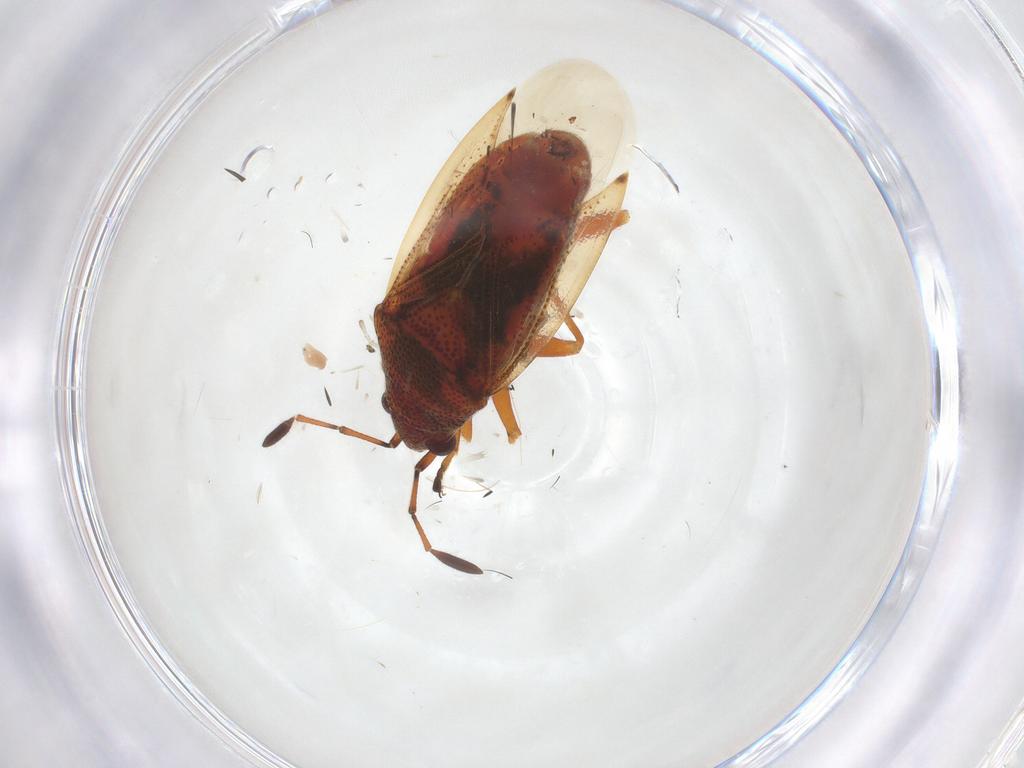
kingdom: Animalia
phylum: Arthropoda
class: Insecta
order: Hemiptera
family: Lygaeidae
